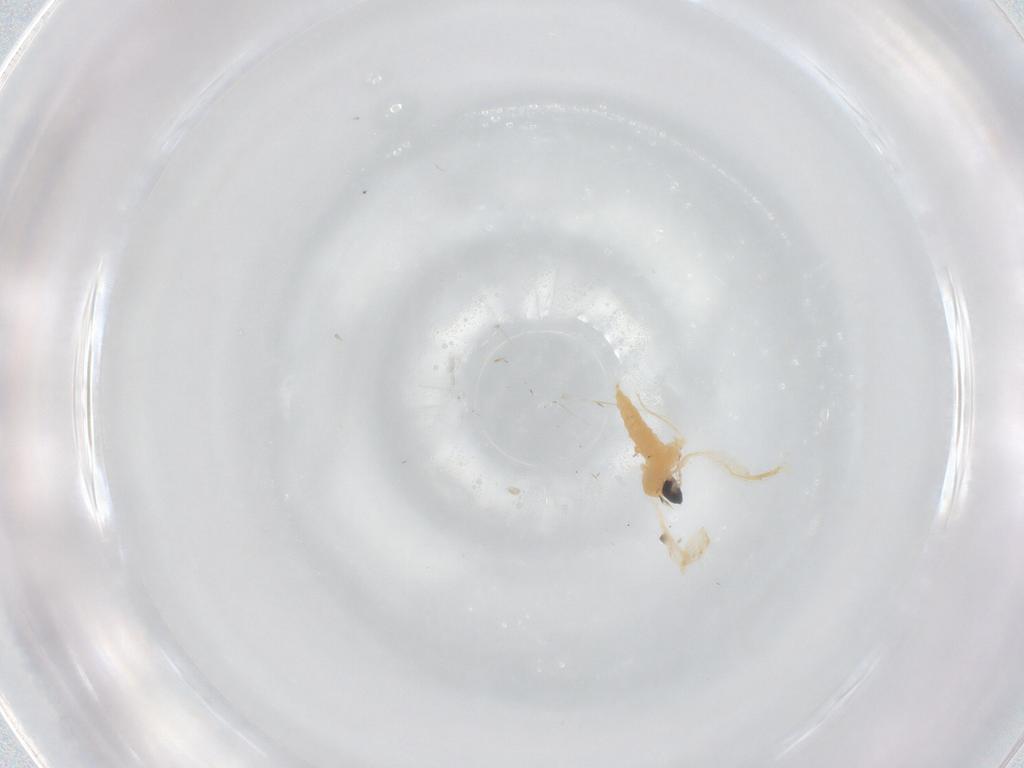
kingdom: Animalia
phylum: Arthropoda
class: Insecta
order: Diptera
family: Cecidomyiidae
